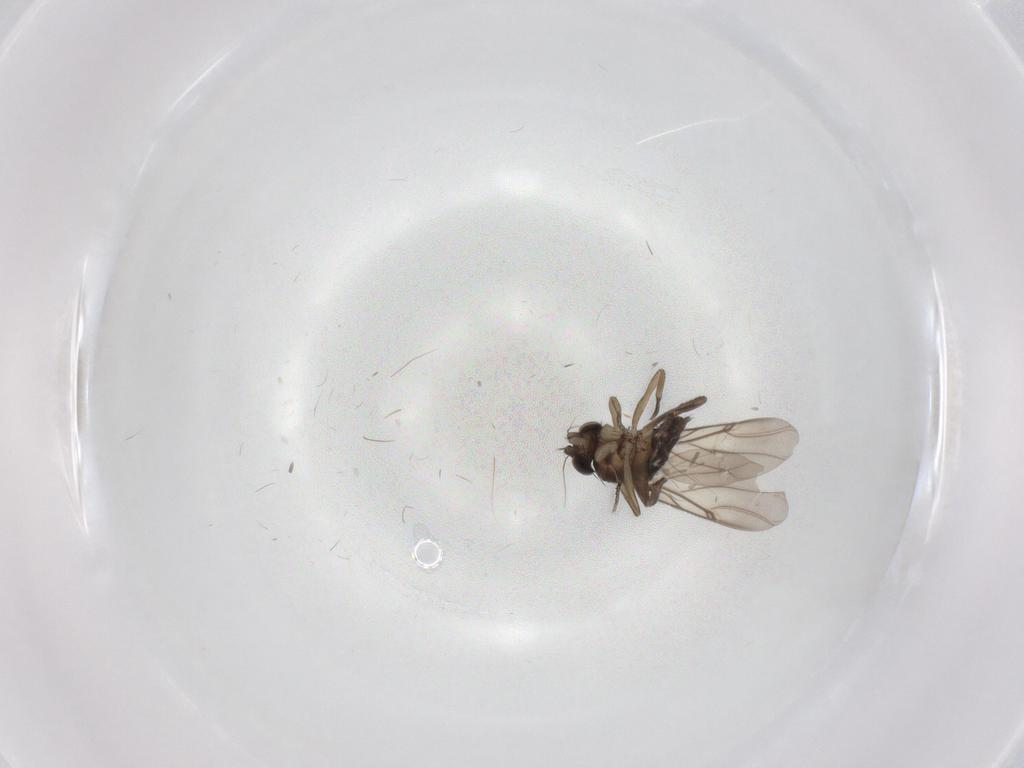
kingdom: Animalia
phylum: Arthropoda
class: Insecta
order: Diptera
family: Phoridae
